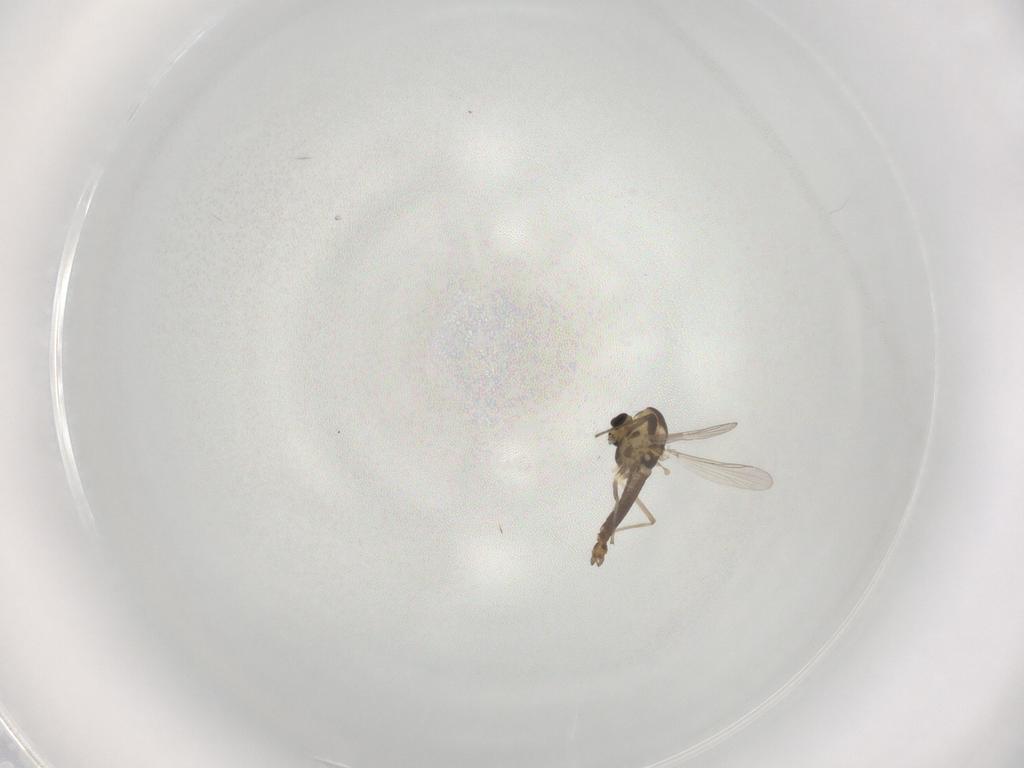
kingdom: Animalia
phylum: Arthropoda
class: Insecta
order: Diptera
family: Chironomidae
